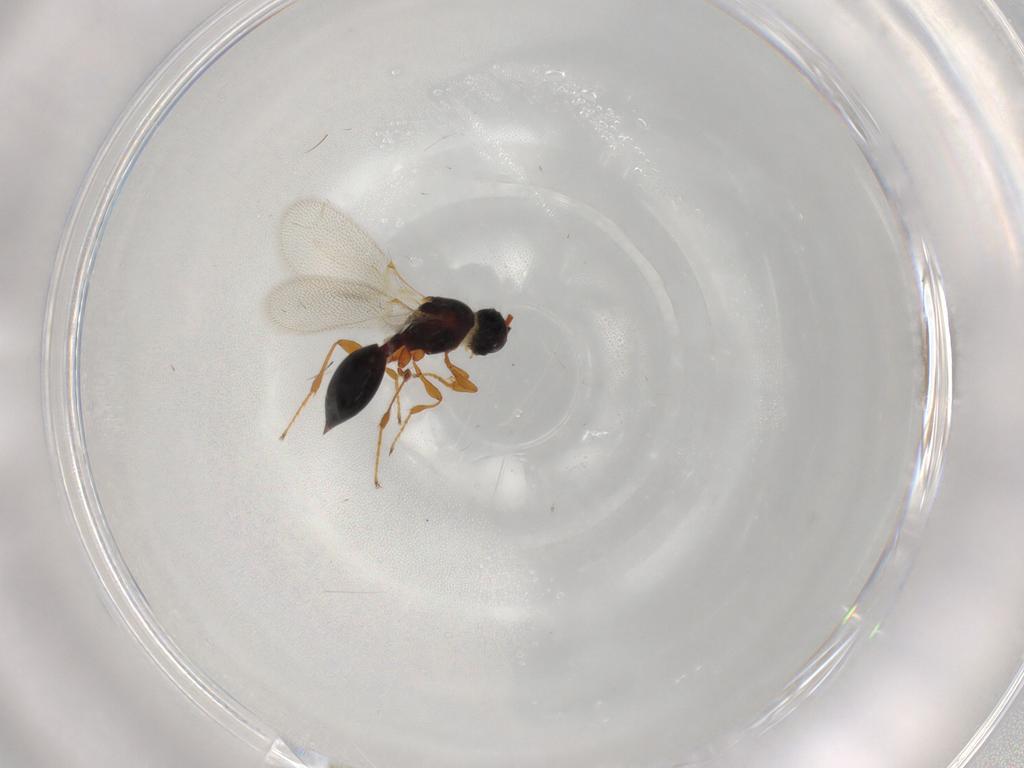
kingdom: Animalia
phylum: Arthropoda
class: Insecta
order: Hymenoptera
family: Diapriidae
